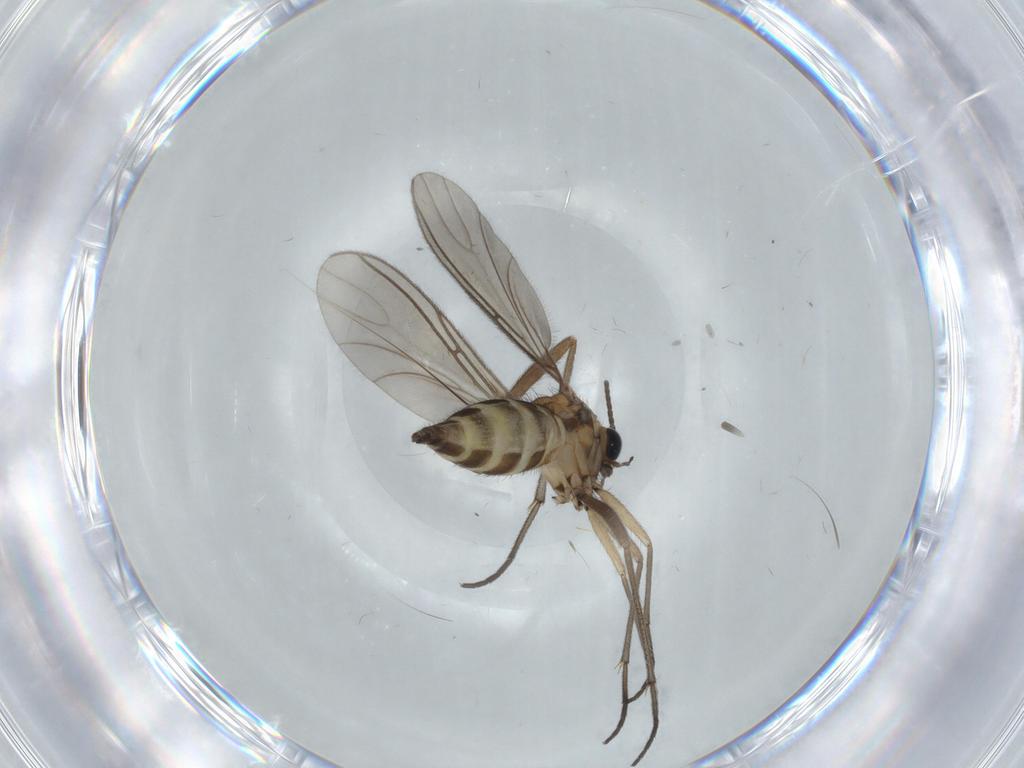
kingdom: Animalia
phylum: Arthropoda
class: Insecta
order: Diptera
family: Sciaridae
